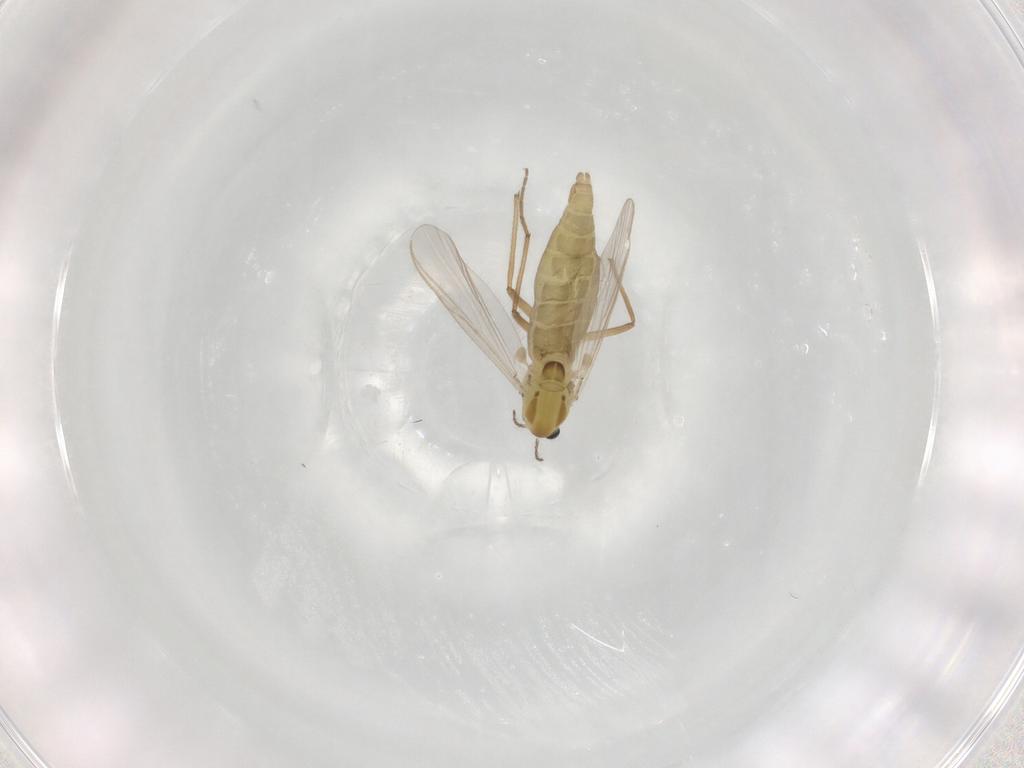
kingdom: Animalia
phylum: Arthropoda
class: Insecta
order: Diptera
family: Chironomidae
